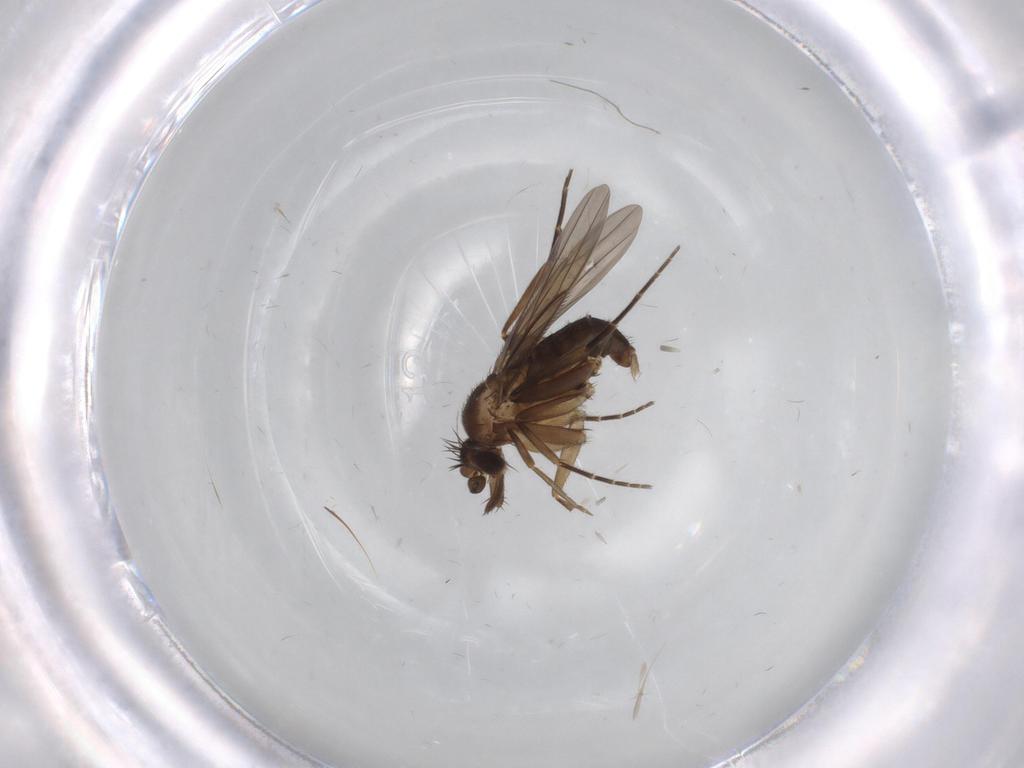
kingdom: Animalia
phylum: Arthropoda
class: Insecta
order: Diptera
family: Phoridae
